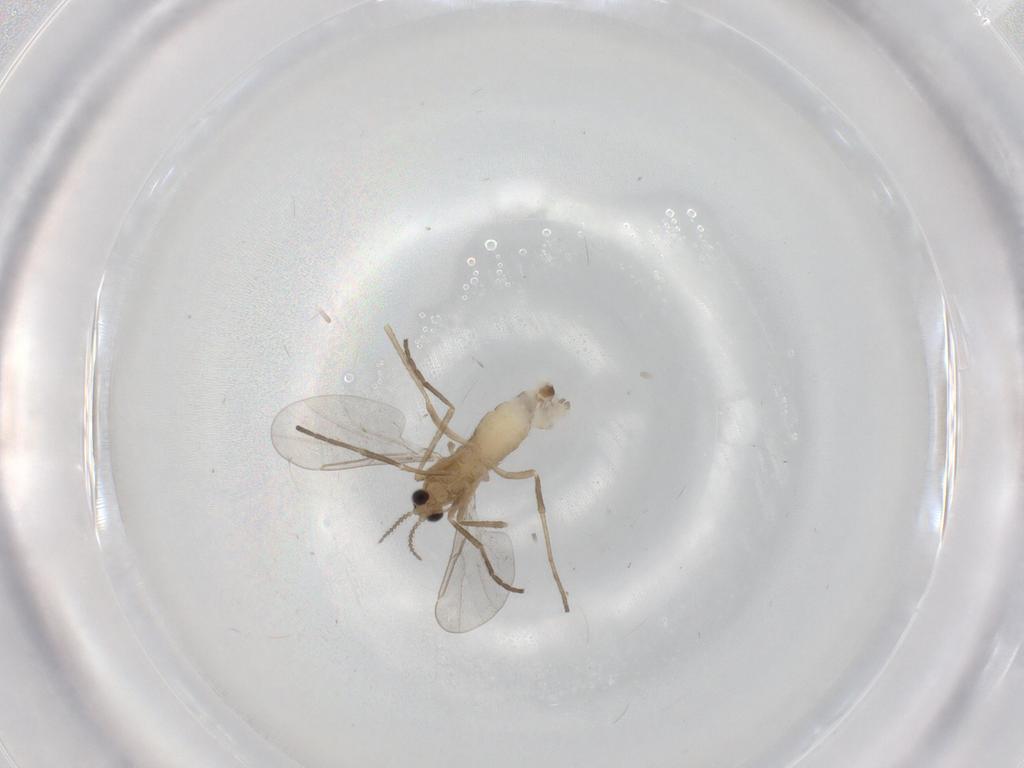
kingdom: Animalia
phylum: Arthropoda
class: Insecta
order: Diptera
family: Cecidomyiidae
